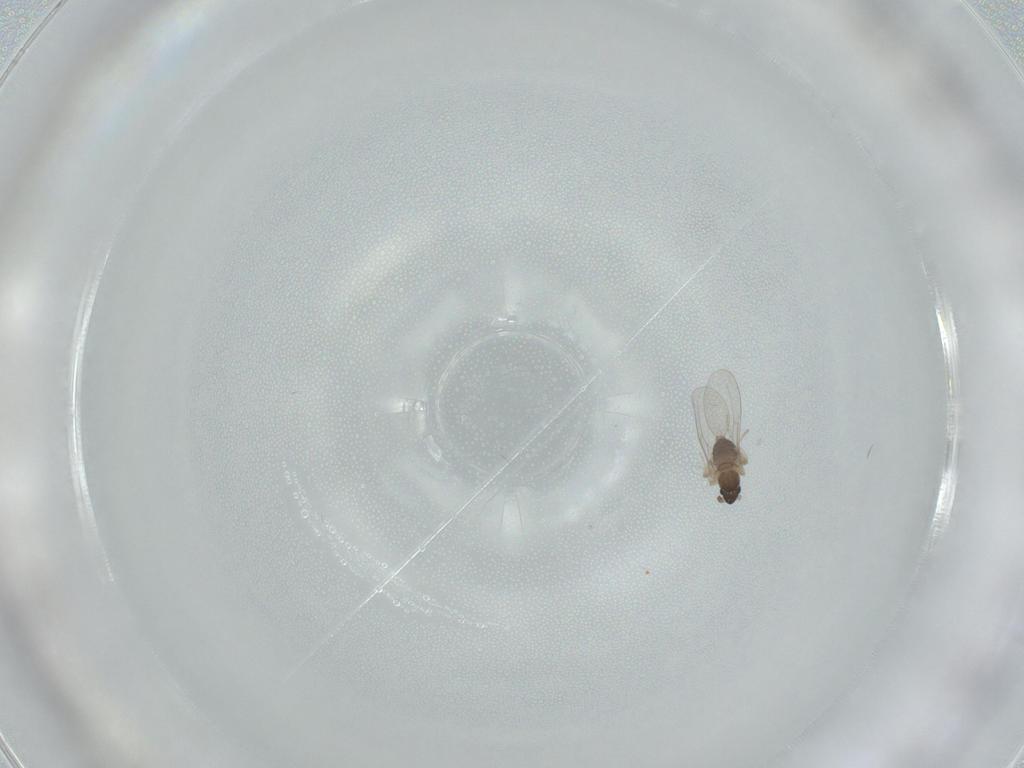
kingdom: Animalia
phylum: Arthropoda
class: Insecta
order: Diptera
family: Cecidomyiidae
